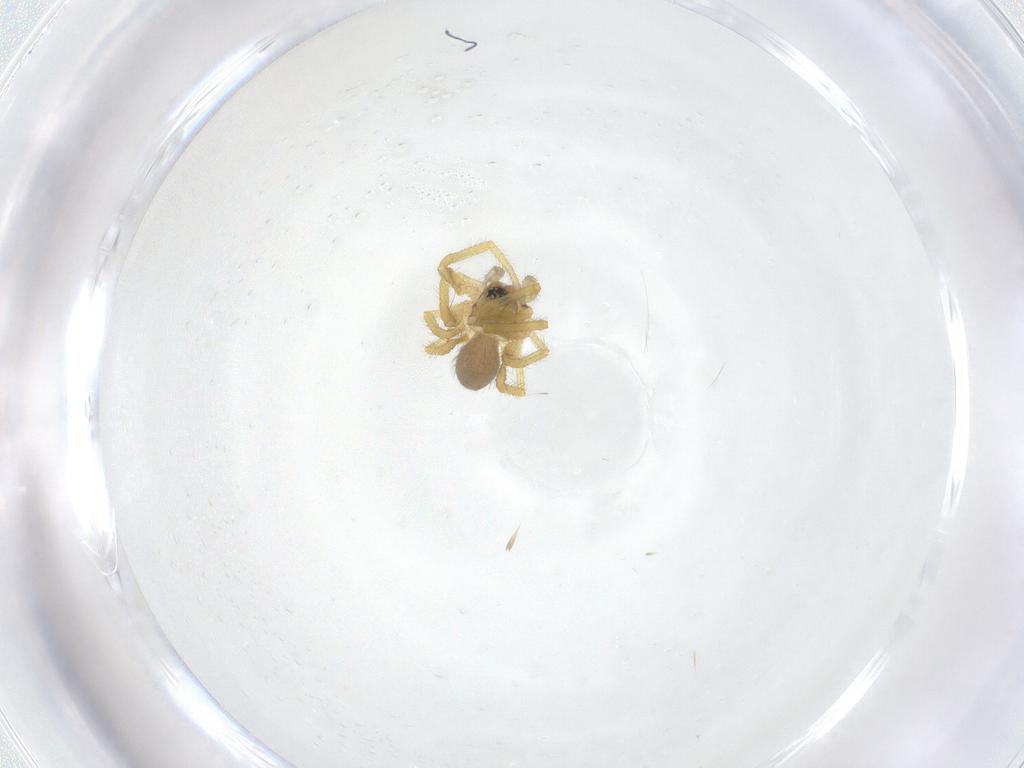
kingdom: Animalia
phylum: Arthropoda
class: Arachnida
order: Araneae
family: Linyphiidae
